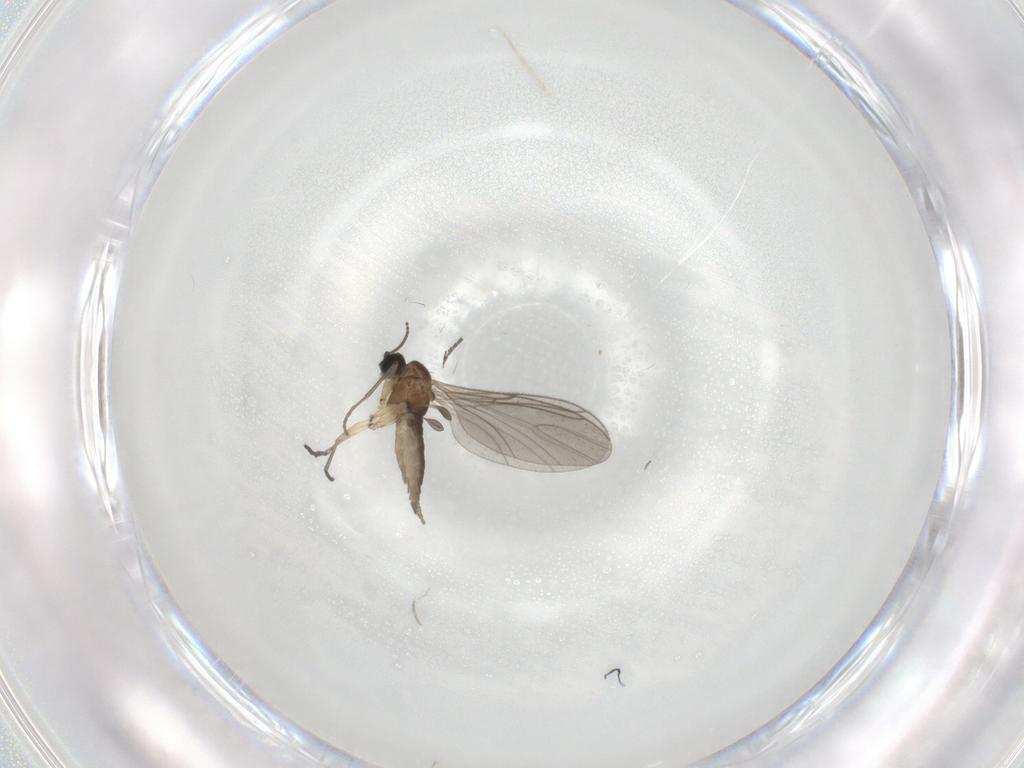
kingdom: Animalia
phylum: Arthropoda
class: Insecta
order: Diptera
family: Sciaridae
